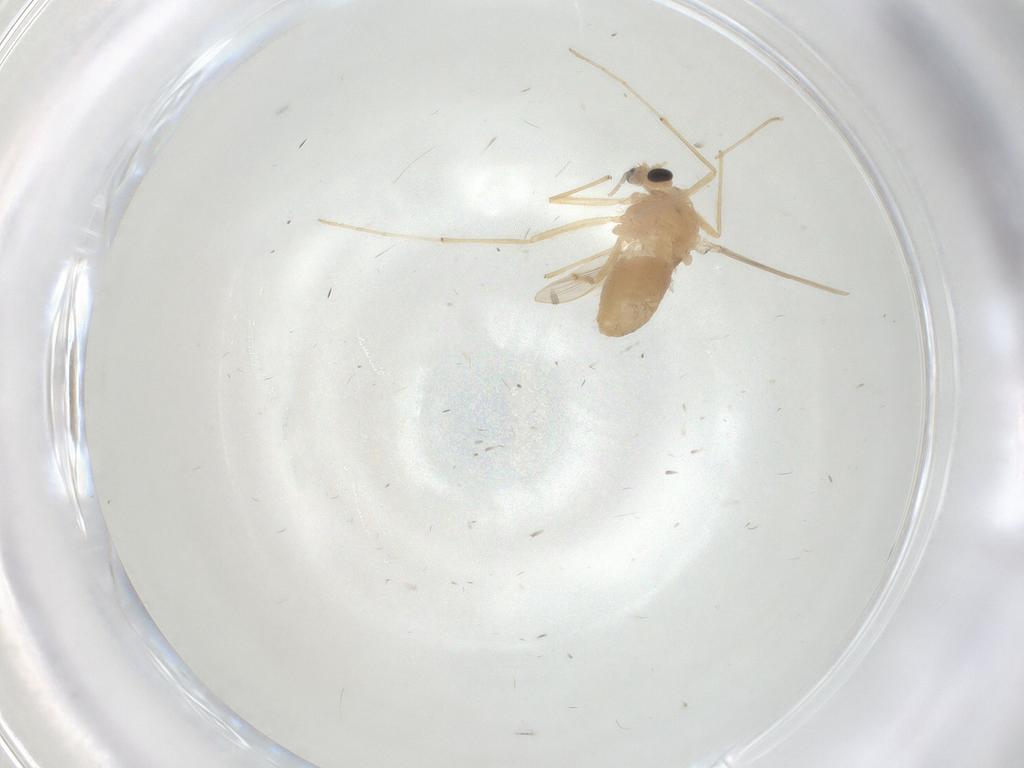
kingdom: Animalia
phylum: Arthropoda
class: Insecta
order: Diptera
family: Chironomidae
